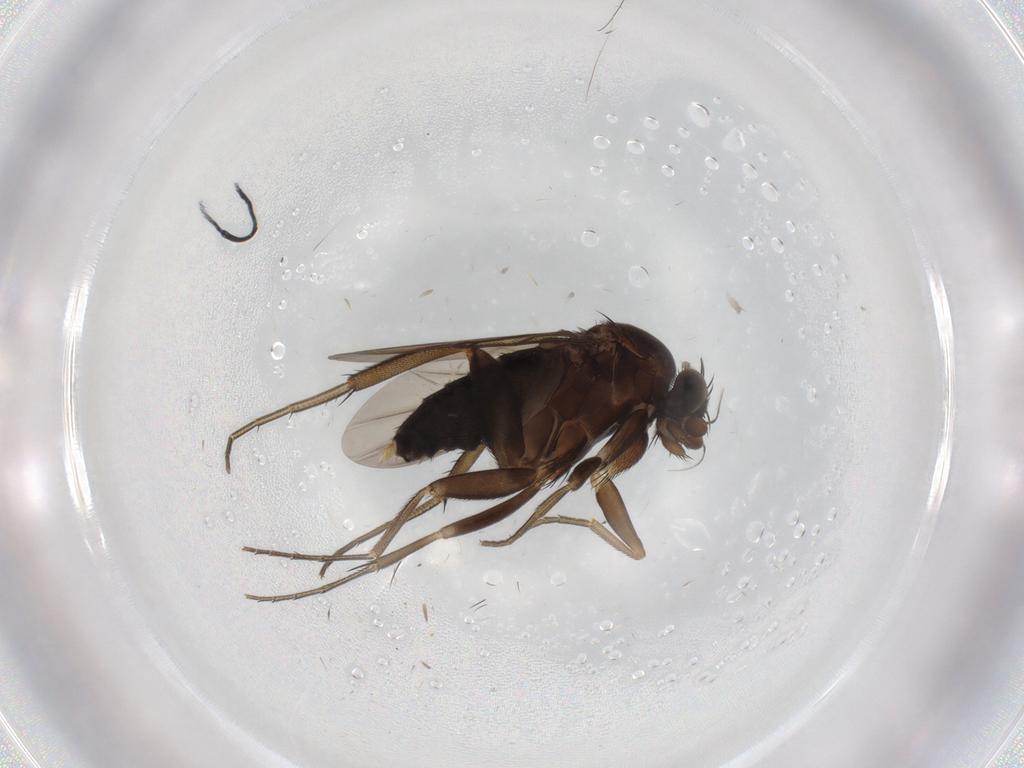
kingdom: Animalia
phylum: Arthropoda
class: Insecta
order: Diptera
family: Phoridae
